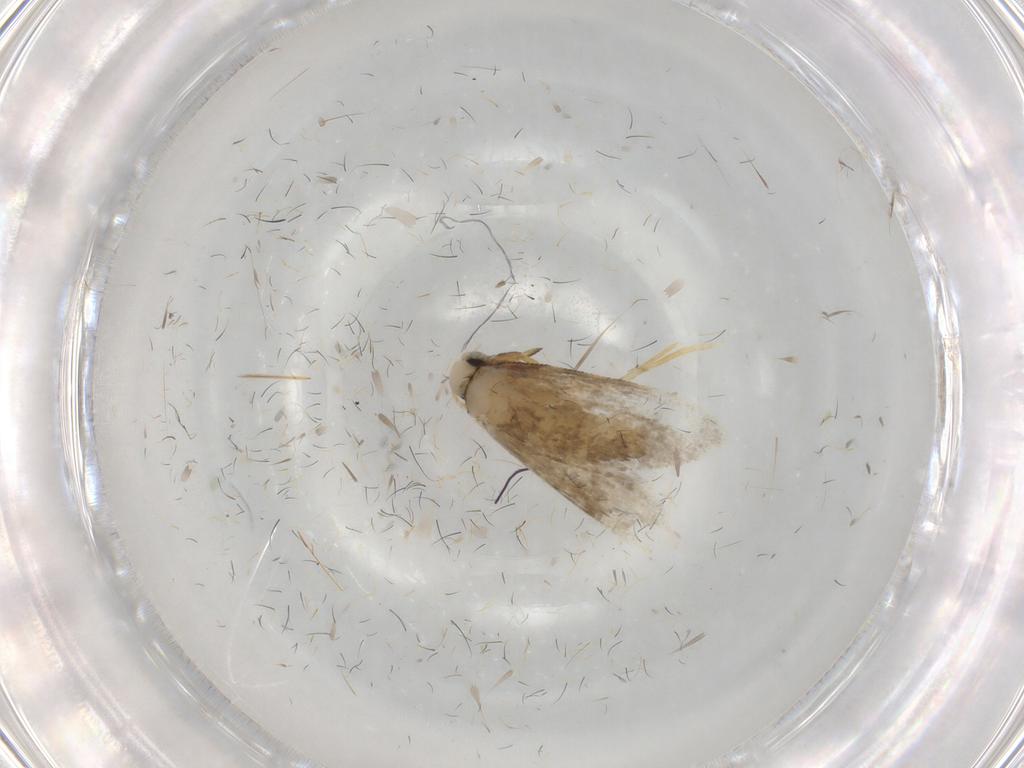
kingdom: Animalia
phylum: Arthropoda
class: Insecta
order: Lepidoptera
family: Psychidae
